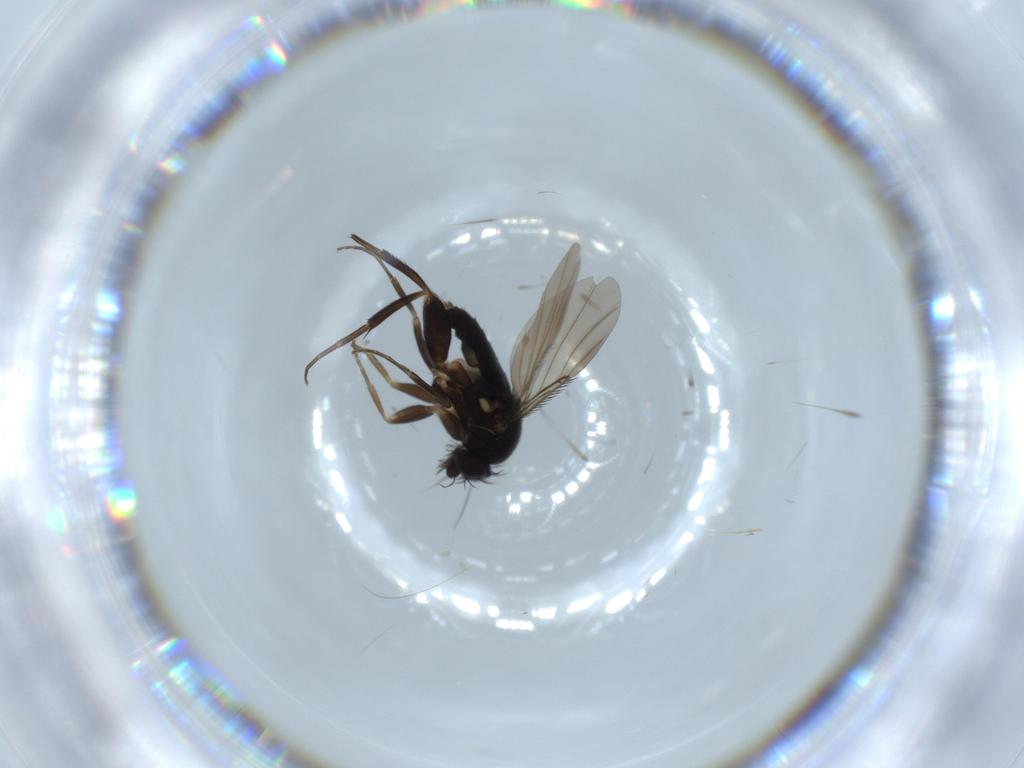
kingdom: Animalia
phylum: Arthropoda
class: Insecta
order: Diptera
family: Phoridae
